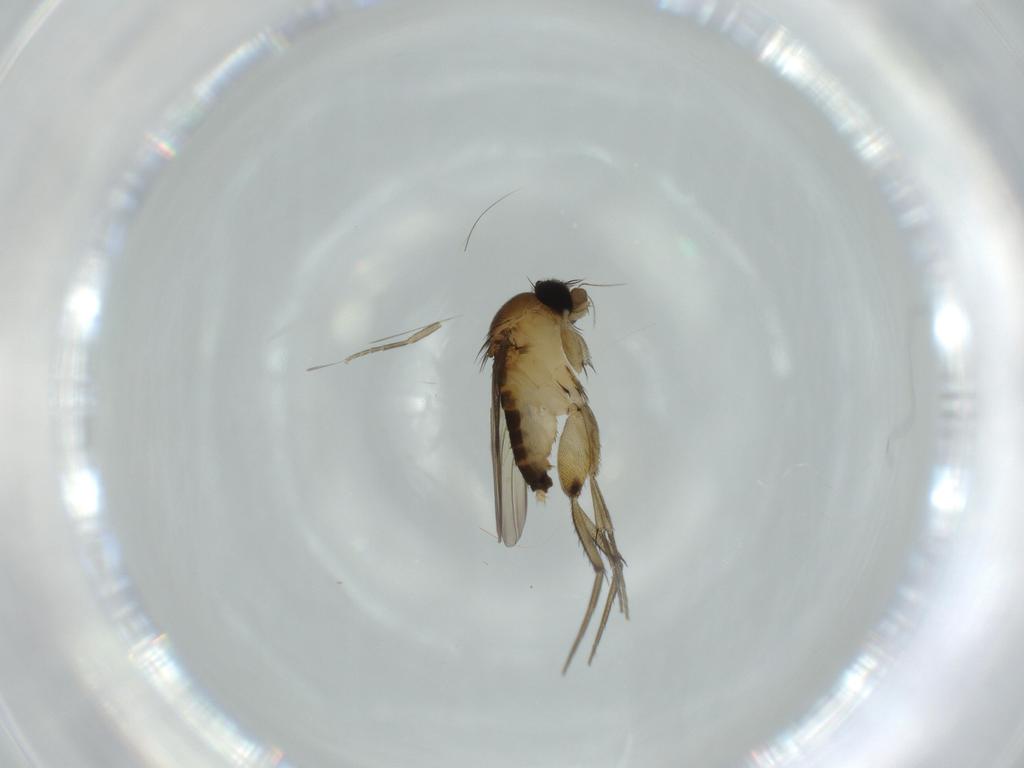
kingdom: Animalia
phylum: Arthropoda
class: Insecta
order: Diptera
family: Phoridae
